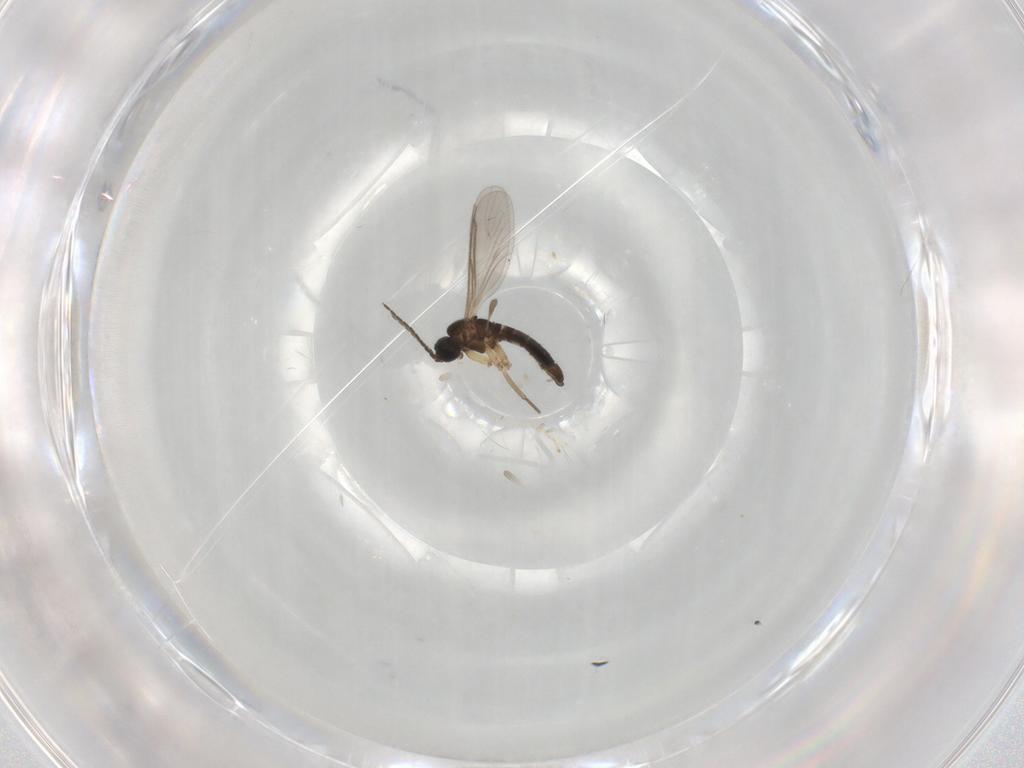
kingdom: Animalia
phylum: Arthropoda
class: Insecta
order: Diptera
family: Sciaridae
